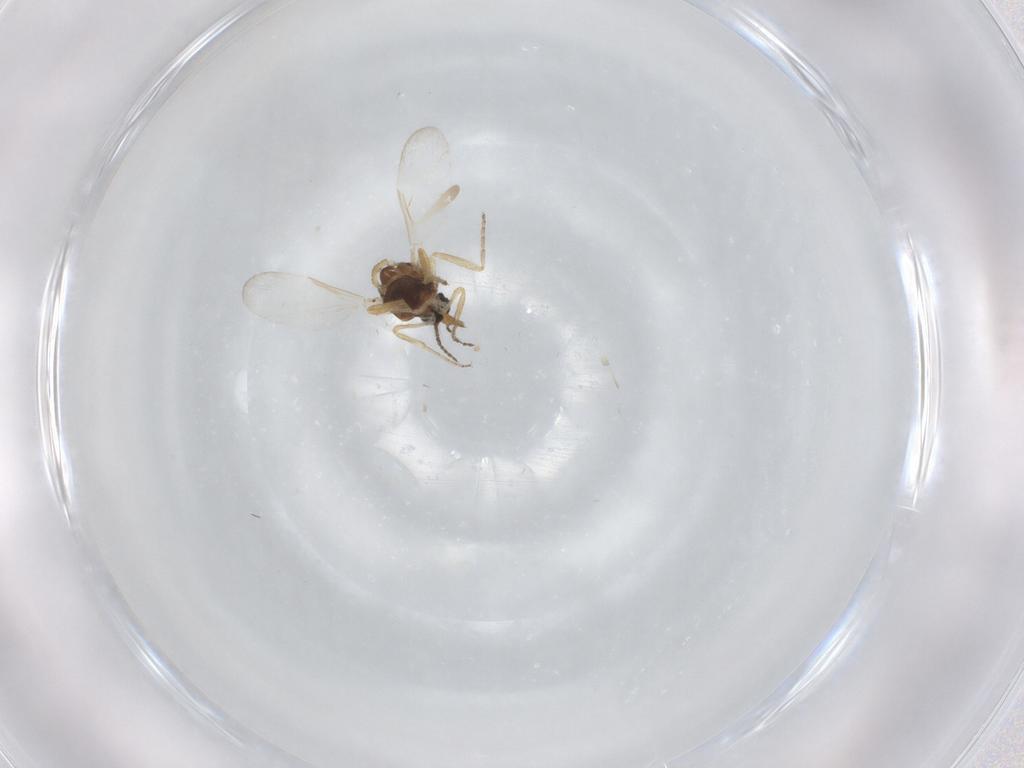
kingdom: Animalia
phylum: Arthropoda
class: Insecta
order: Diptera
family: Ceratopogonidae
